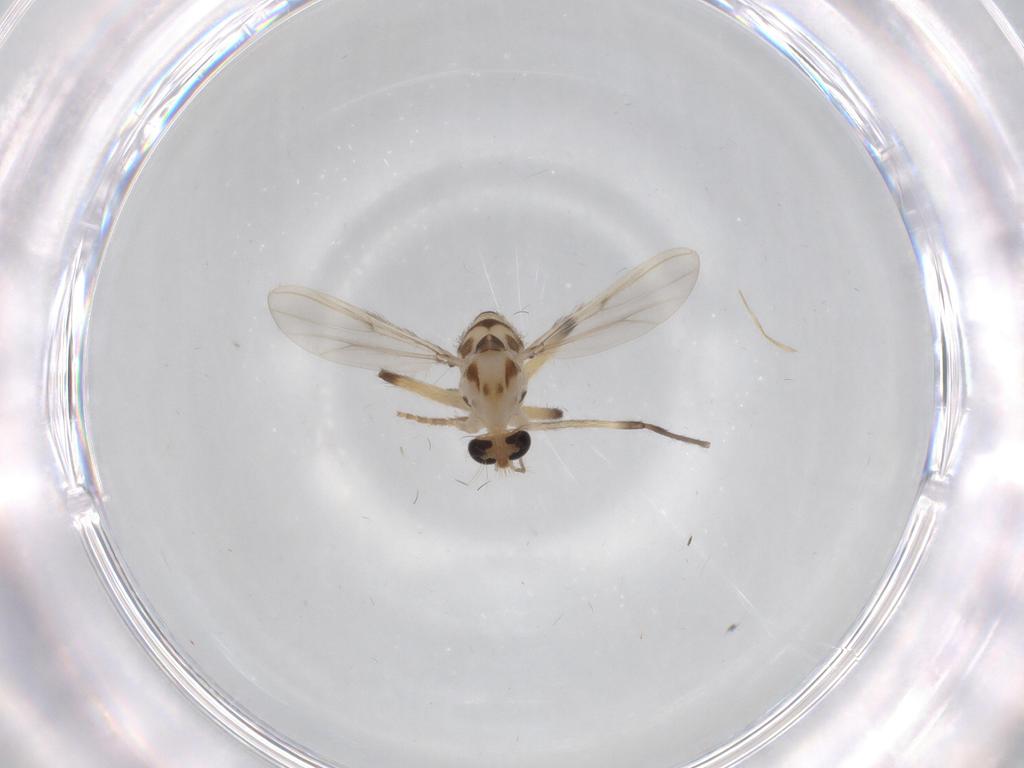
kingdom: Animalia
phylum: Arthropoda
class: Insecta
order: Diptera
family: Chironomidae
